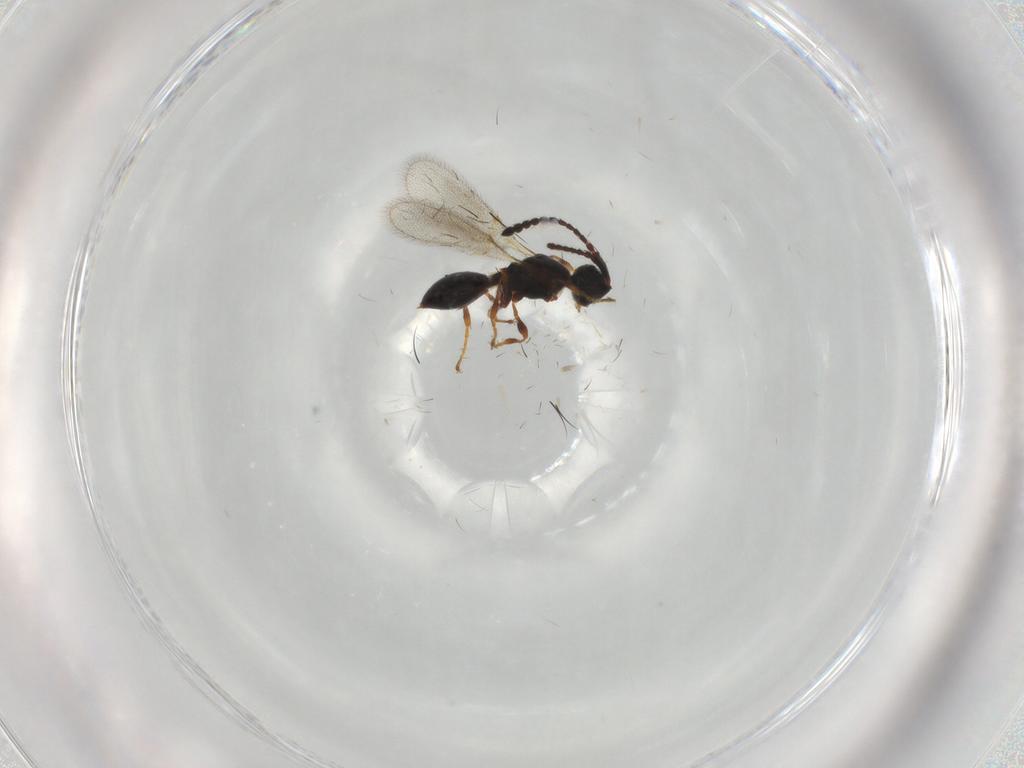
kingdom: Animalia
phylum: Arthropoda
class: Insecta
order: Hymenoptera
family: Diapriidae
